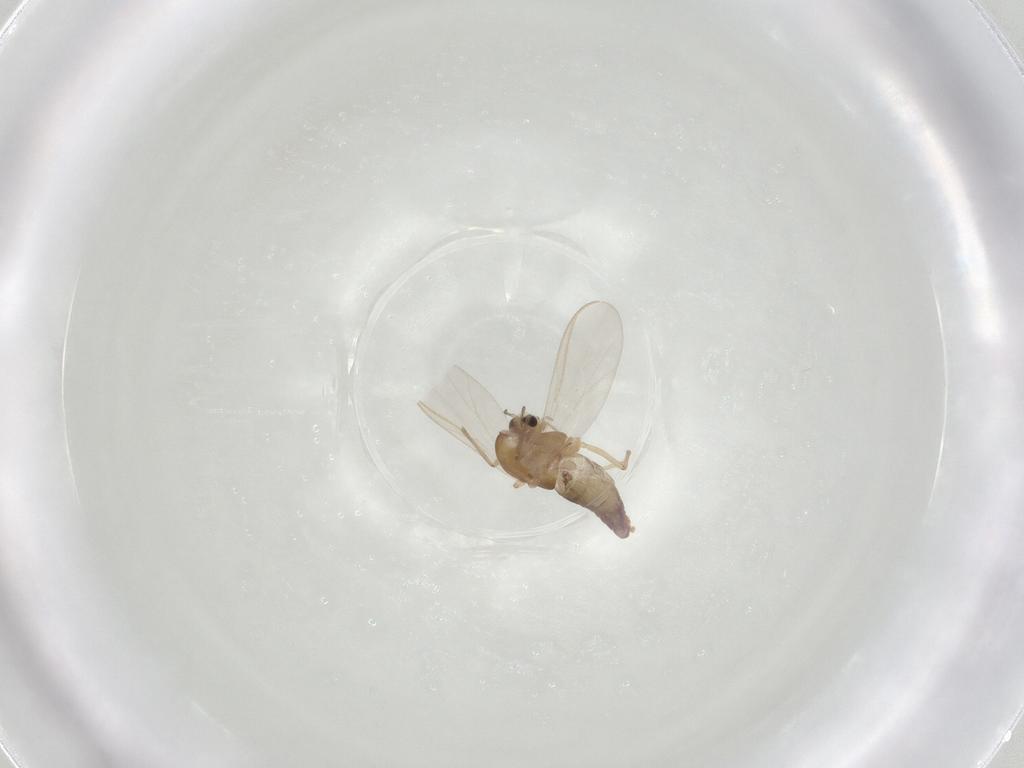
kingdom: Animalia
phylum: Arthropoda
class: Insecta
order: Diptera
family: Chironomidae
